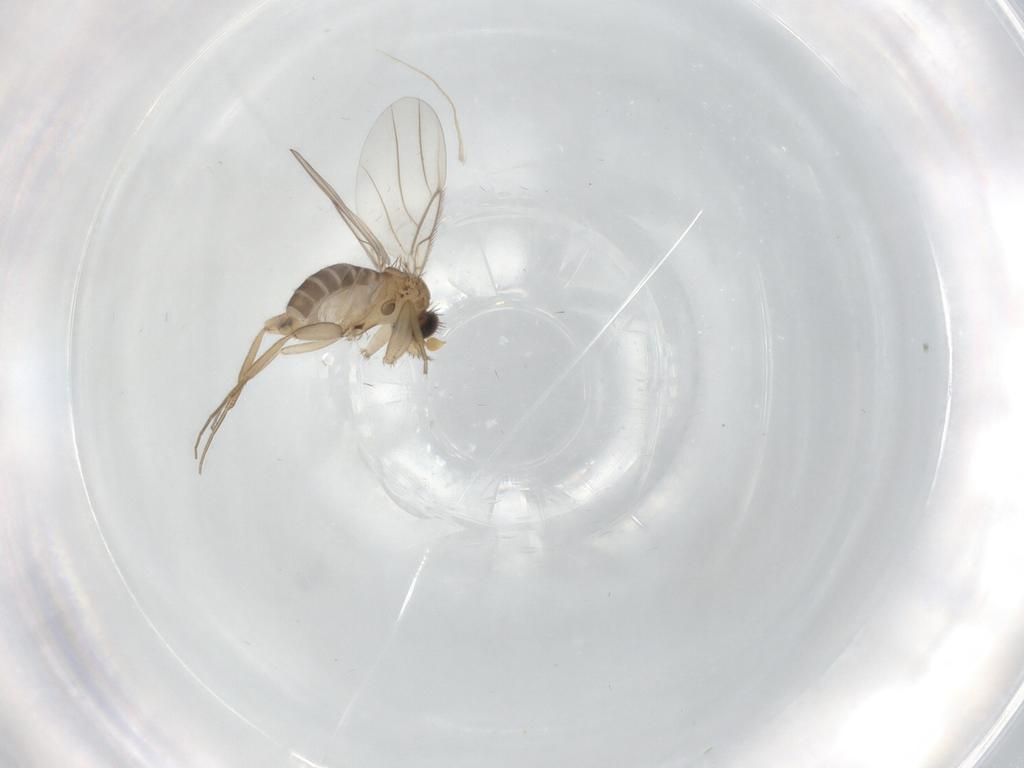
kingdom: Animalia
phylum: Arthropoda
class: Insecta
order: Diptera
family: Phoridae
